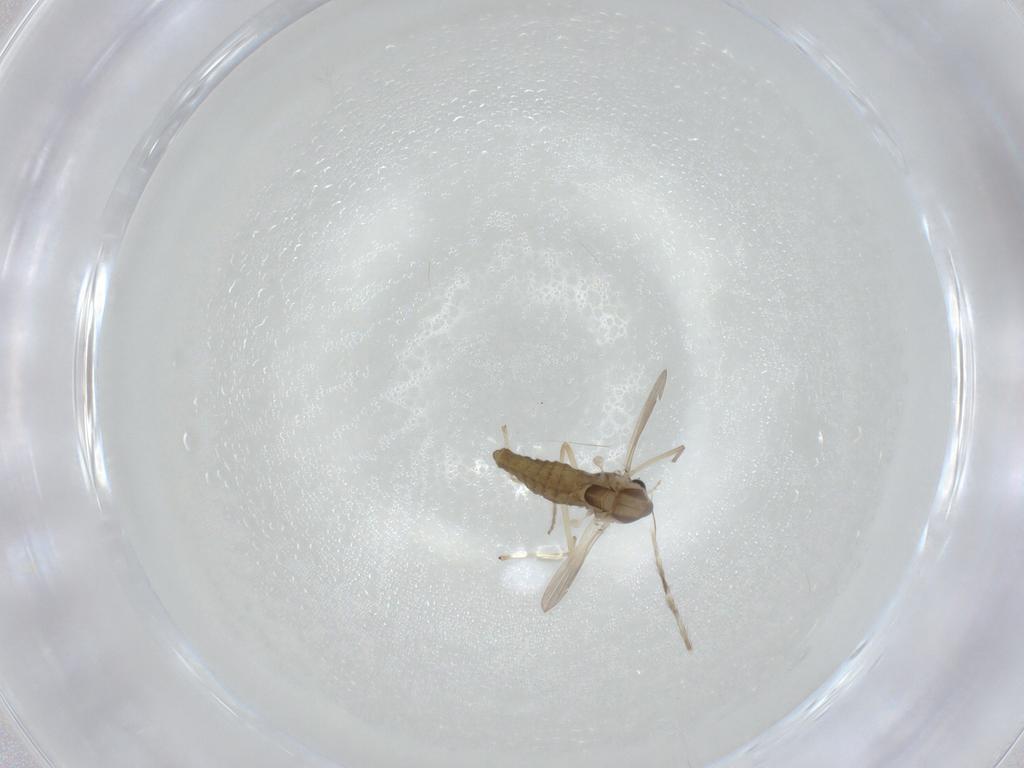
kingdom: Animalia
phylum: Arthropoda
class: Insecta
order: Diptera
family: Chironomidae
